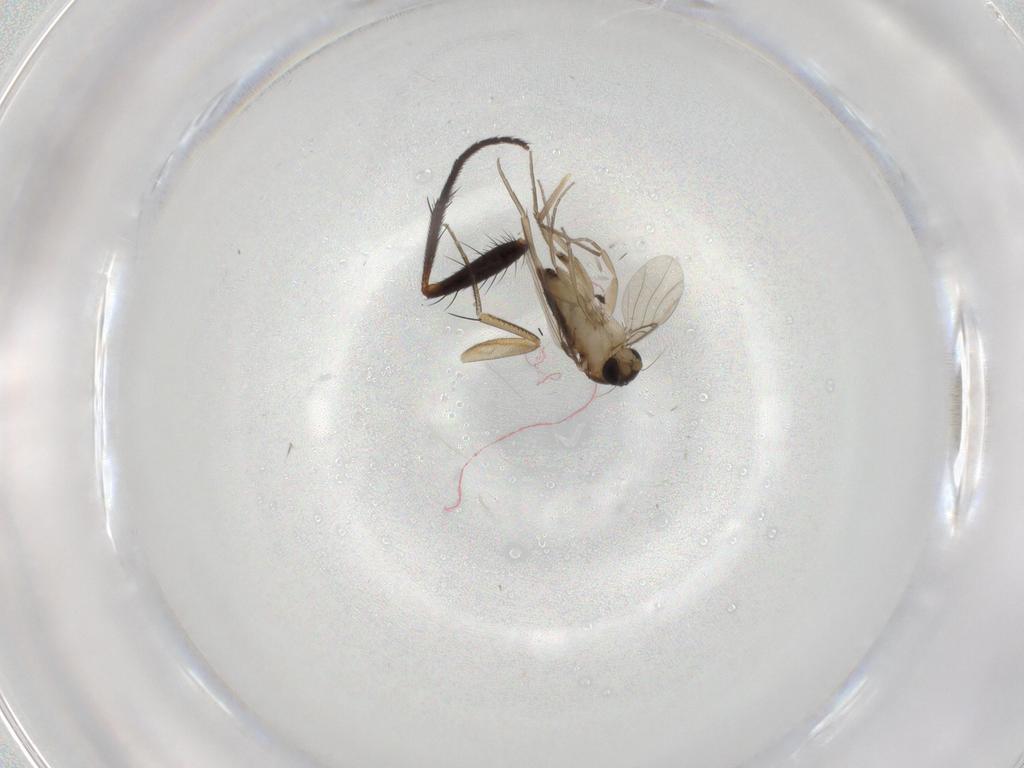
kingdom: Animalia
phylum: Arthropoda
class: Insecta
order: Diptera
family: Phoridae
